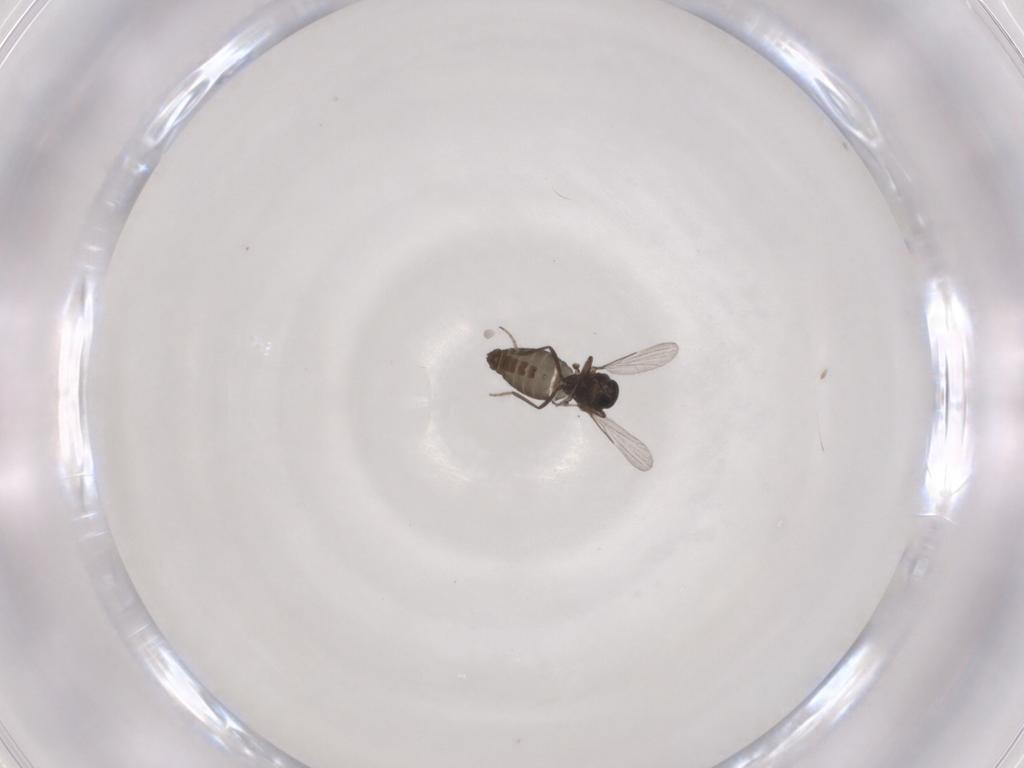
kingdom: Animalia
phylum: Arthropoda
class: Insecta
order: Diptera
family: Ceratopogonidae
